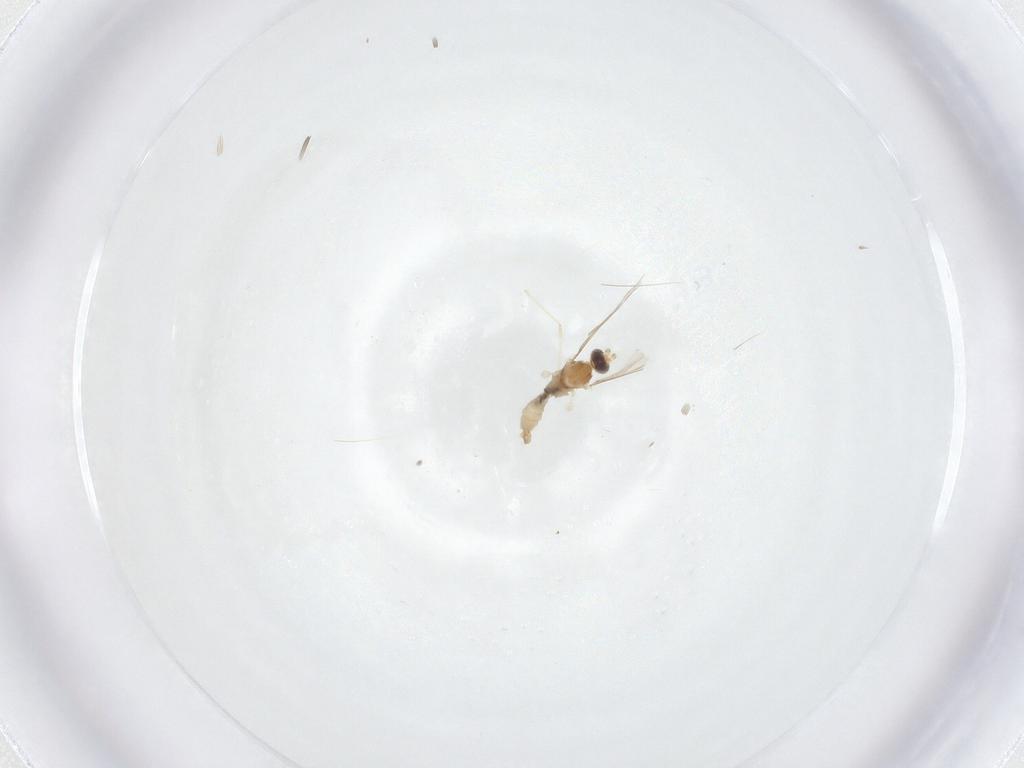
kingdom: Animalia
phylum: Arthropoda
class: Insecta
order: Diptera
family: Cecidomyiidae
